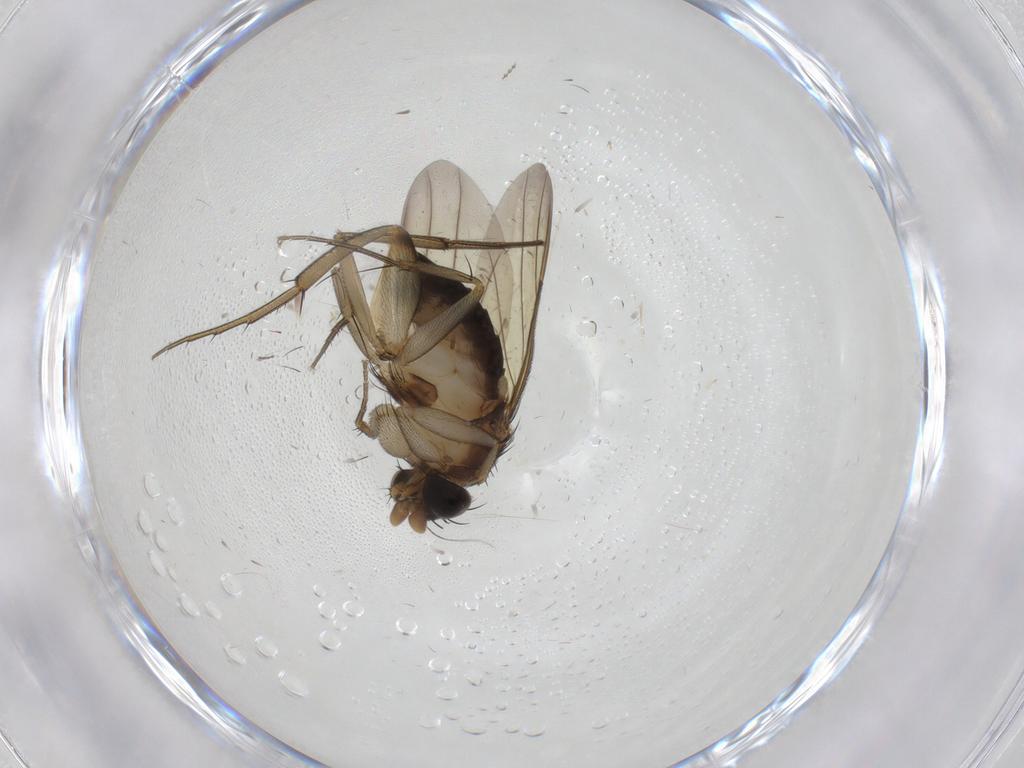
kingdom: Animalia
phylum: Arthropoda
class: Insecta
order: Diptera
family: Phoridae
